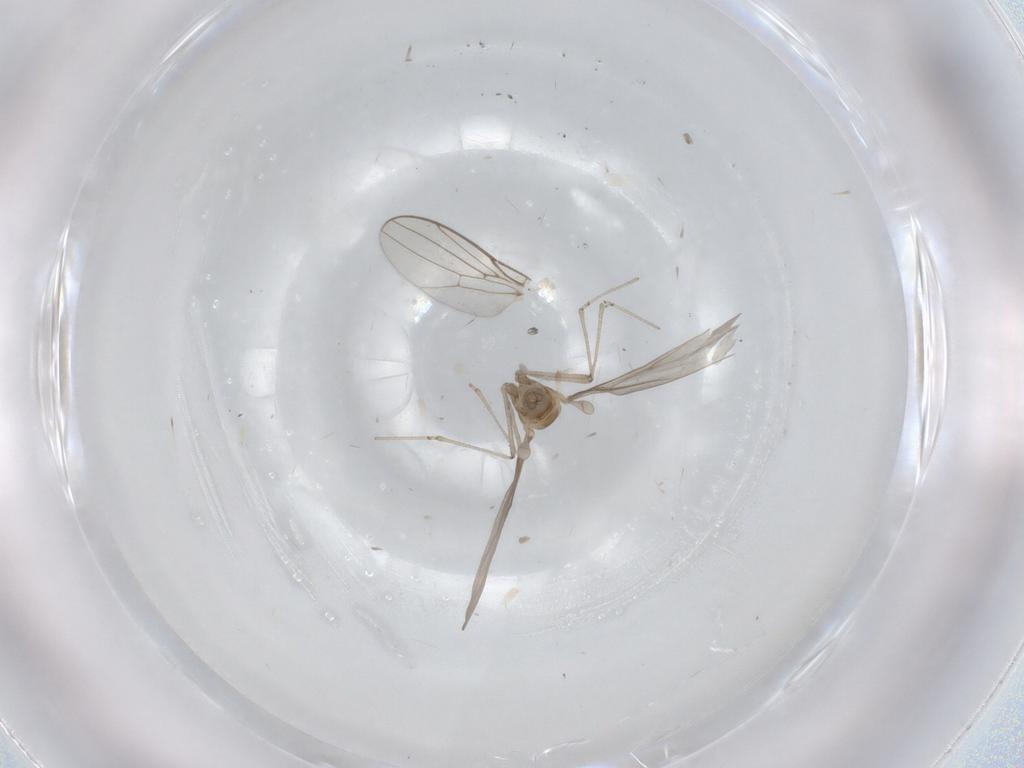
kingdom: Animalia
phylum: Arthropoda
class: Insecta
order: Diptera
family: Cecidomyiidae
